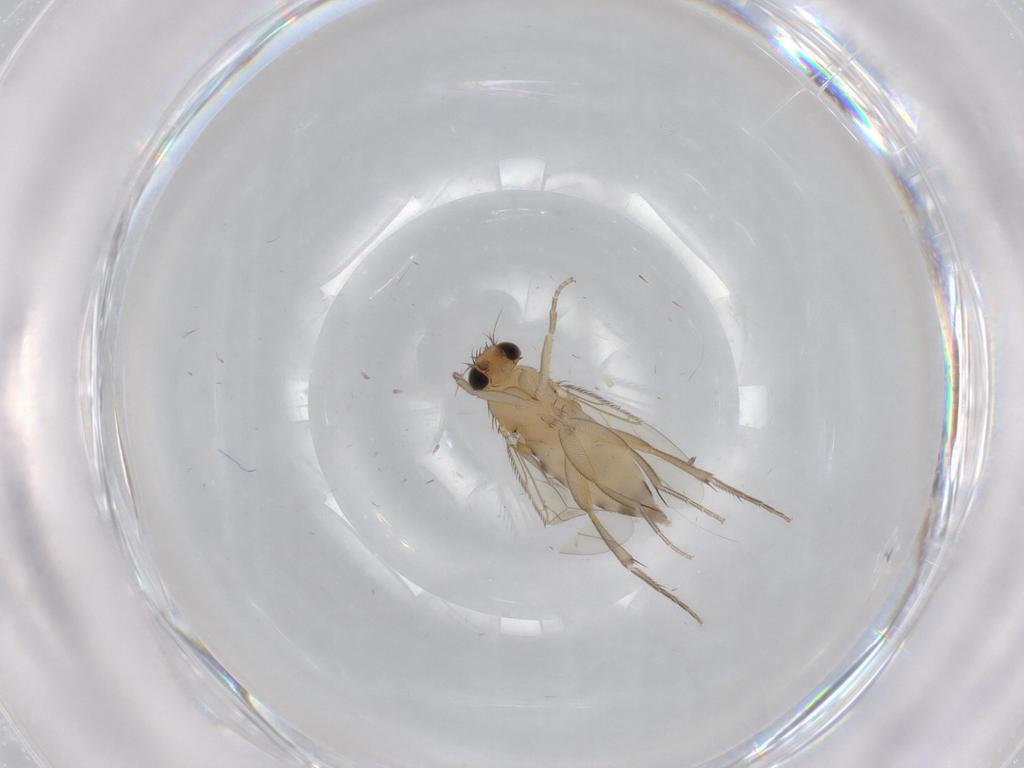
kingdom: Animalia
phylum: Arthropoda
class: Insecta
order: Diptera
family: Phoridae
